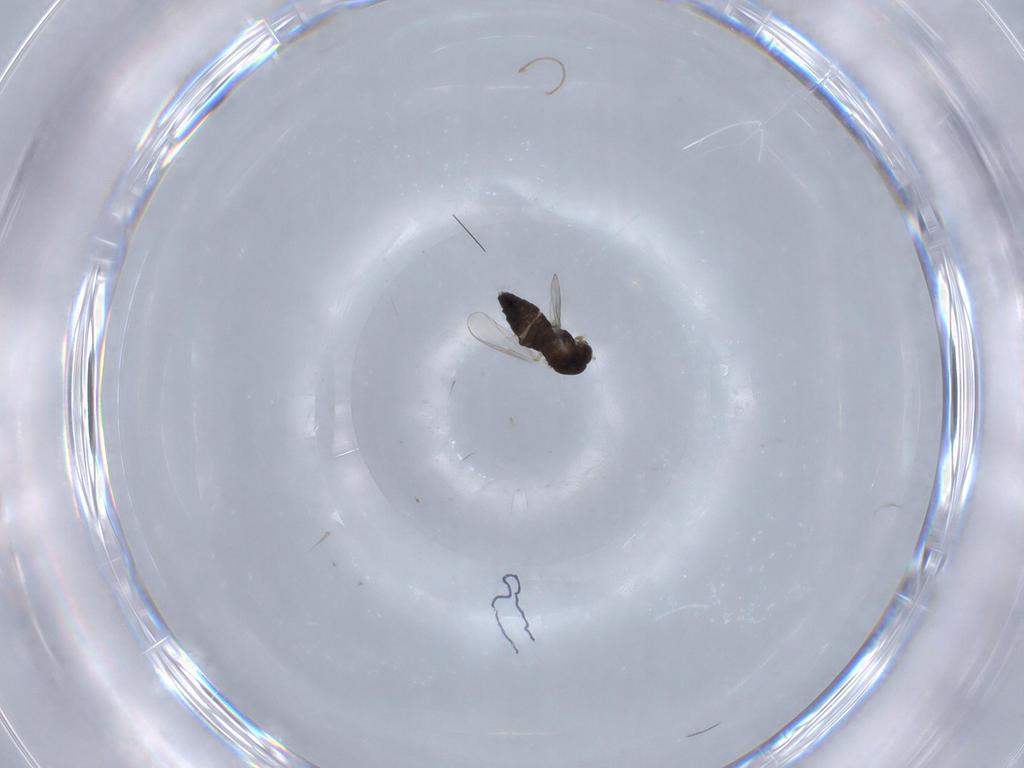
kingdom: Animalia
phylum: Arthropoda
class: Insecta
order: Diptera
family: Chironomidae
